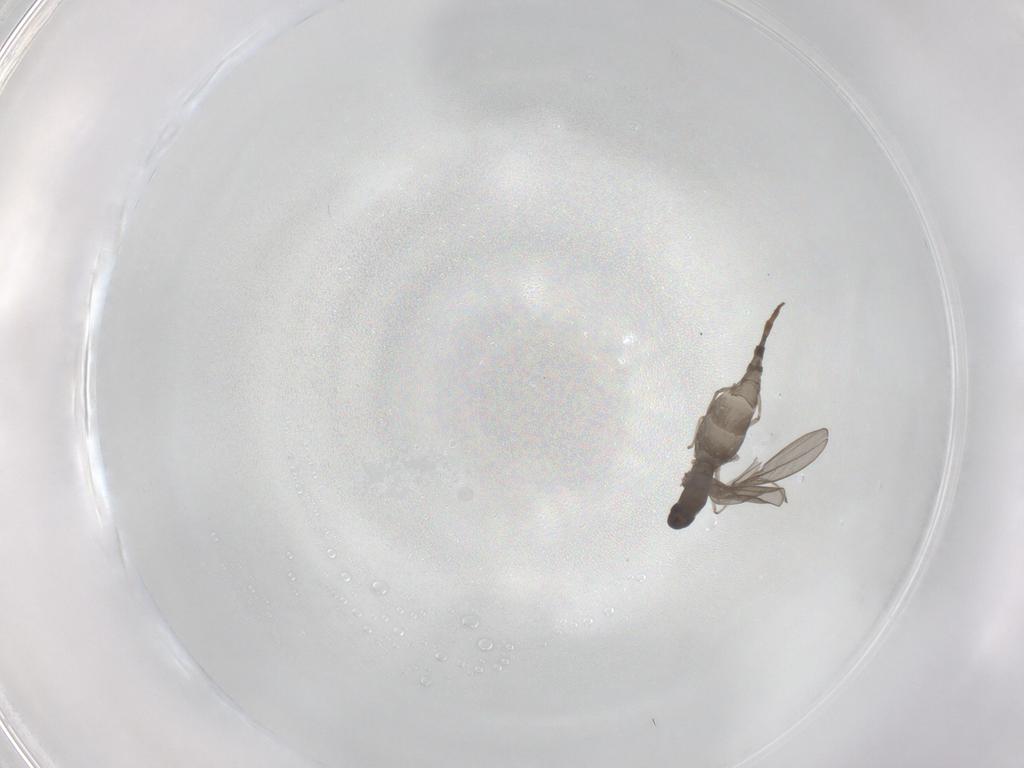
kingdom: Animalia
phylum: Arthropoda
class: Insecta
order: Diptera
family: Cecidomyiidae
